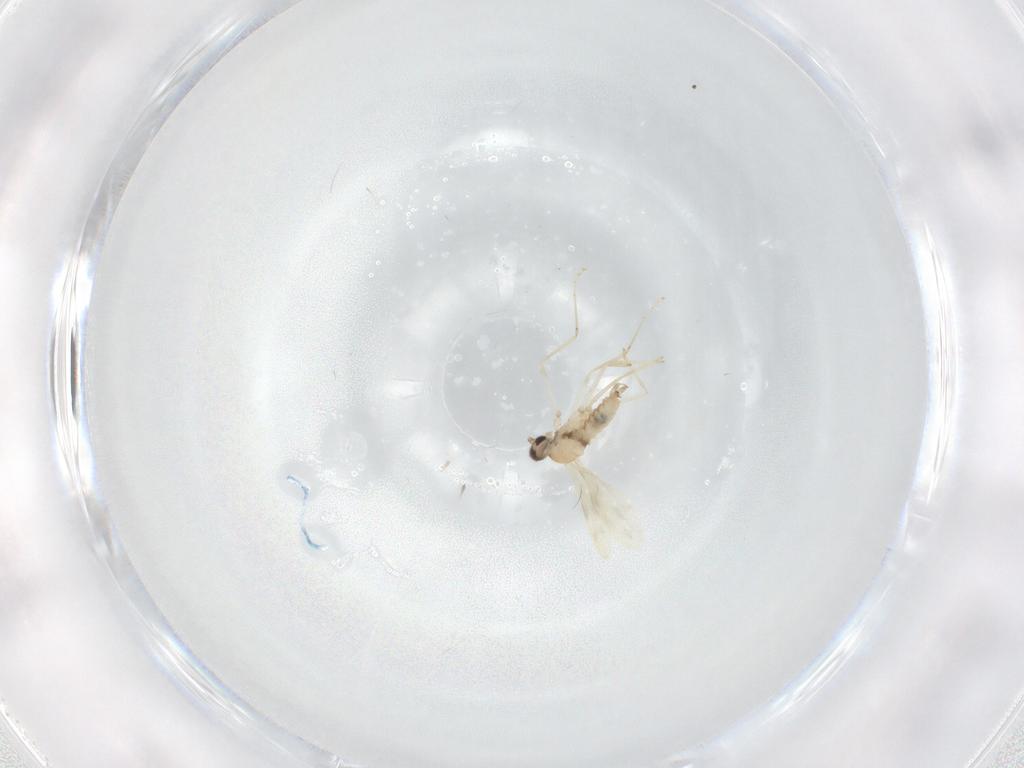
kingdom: Animalia
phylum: Arthropoda
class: Insecta
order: Diptera
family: Cecidomyiidae
